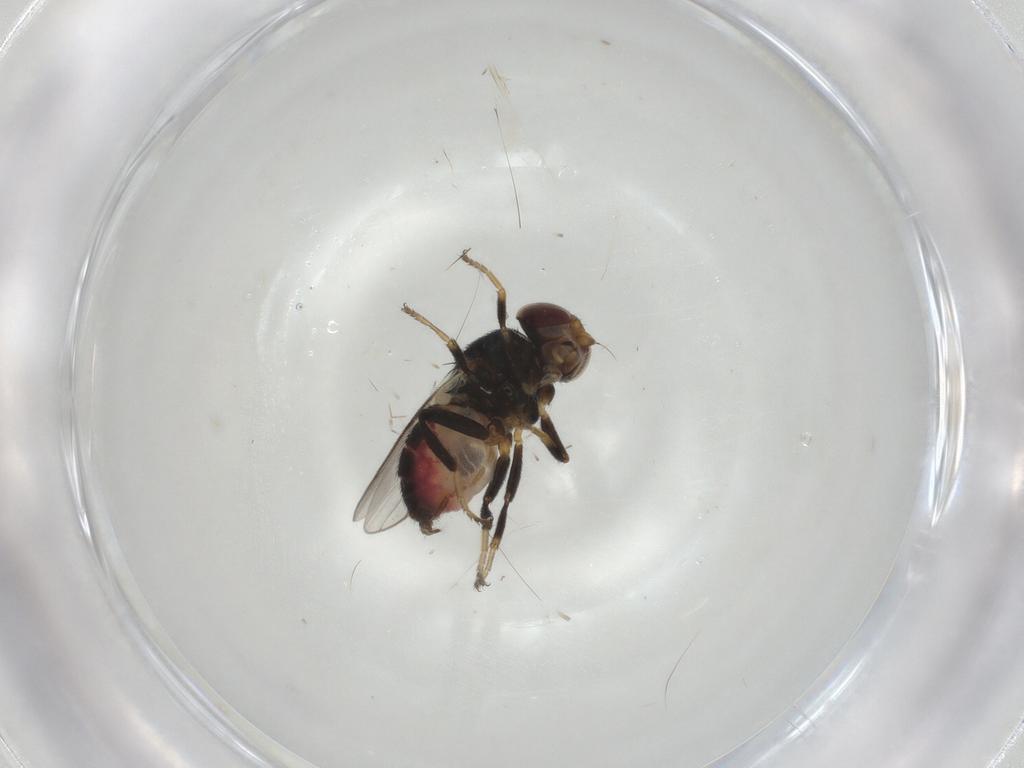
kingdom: Animalia
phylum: Arthropoda
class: Insecta
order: Diptera
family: Chloropidae
